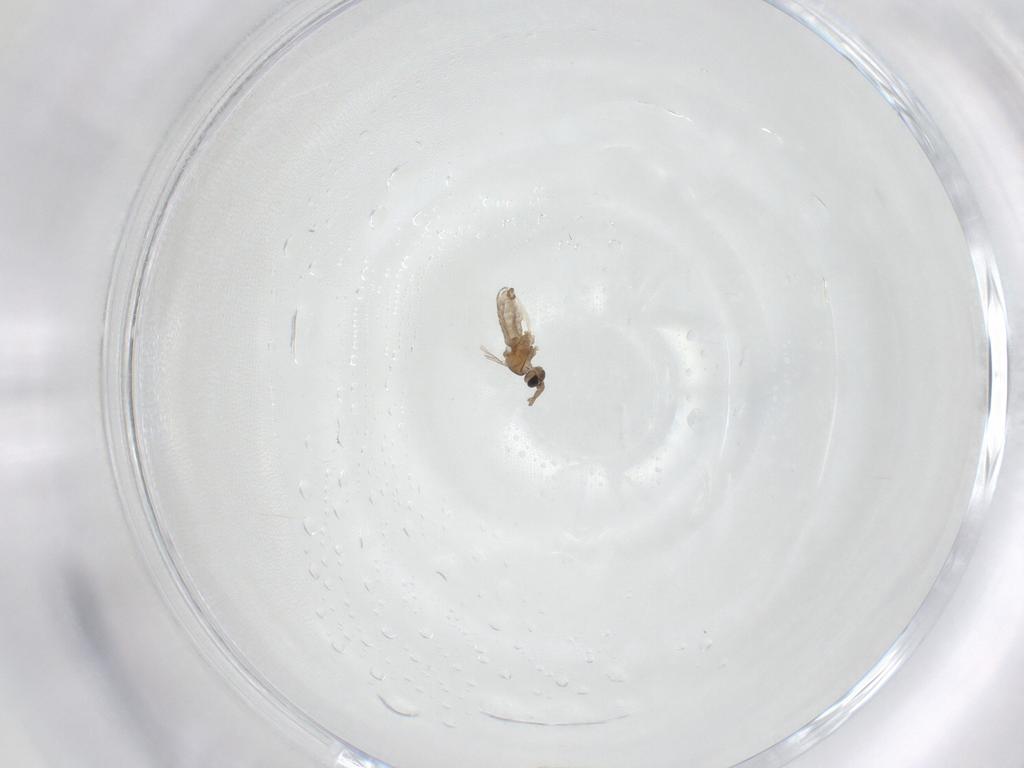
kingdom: Animalia
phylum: Arthropoda
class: Insecta
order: Diptera
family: Cecidomyiidae
